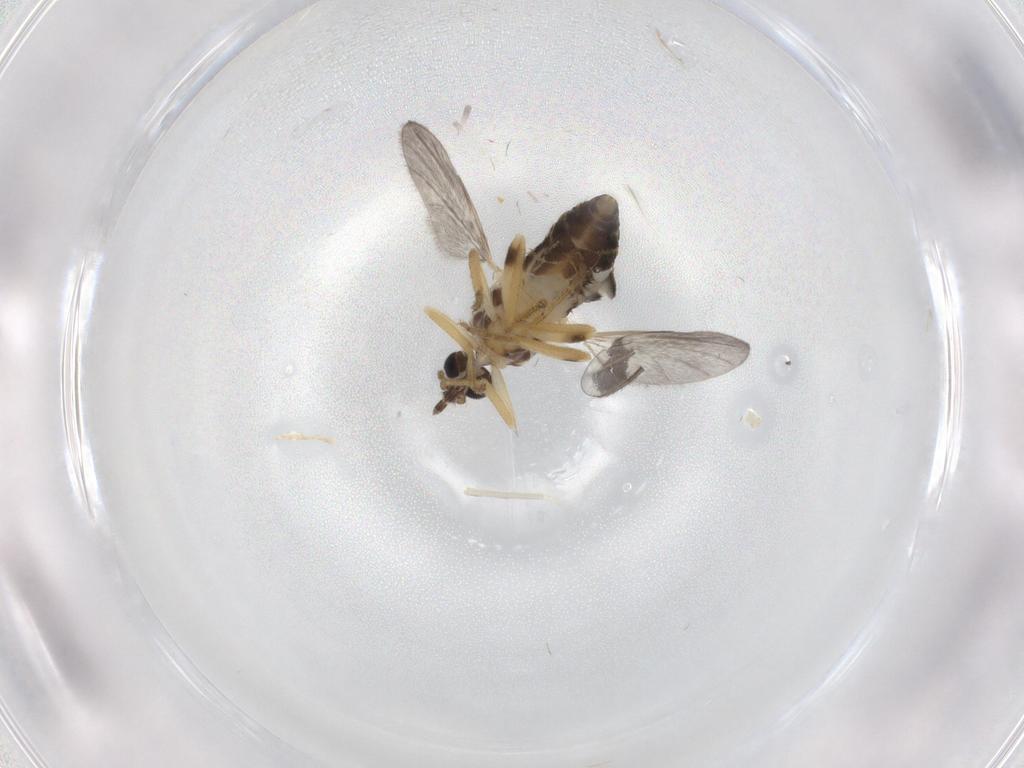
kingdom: Animalia
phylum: Arthropoda
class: Insecta
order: Diptera
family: Ceratopogonidae
